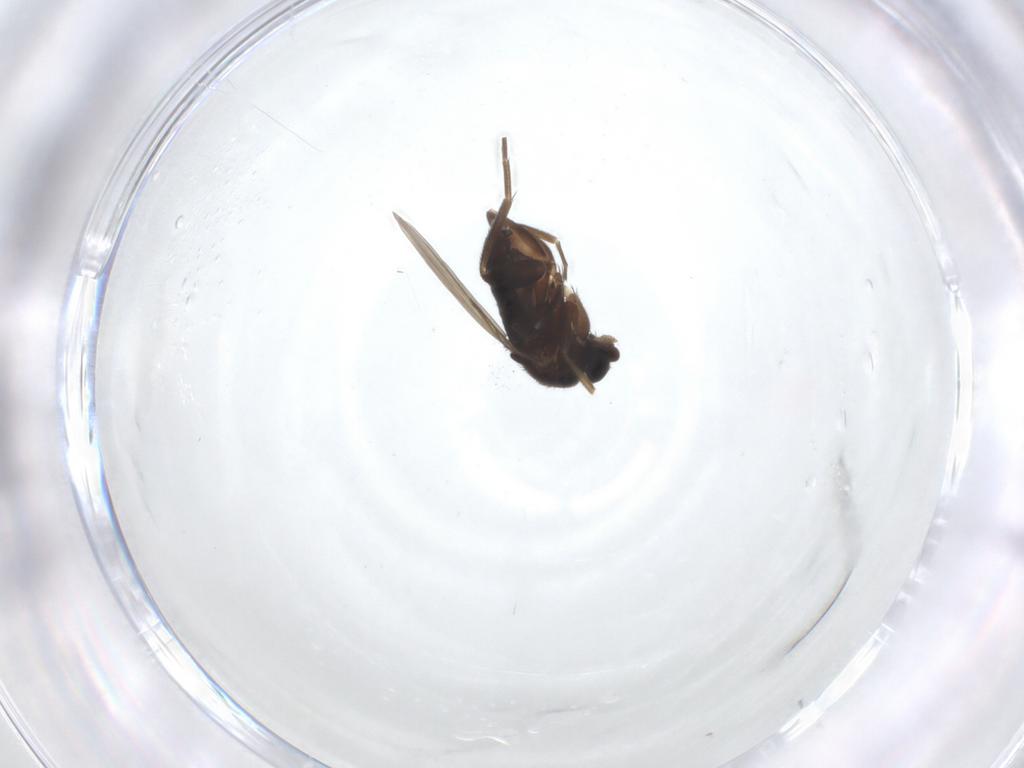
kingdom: Animalia
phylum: Arthropoda
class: Insecta
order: Diptera
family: Phoridae
